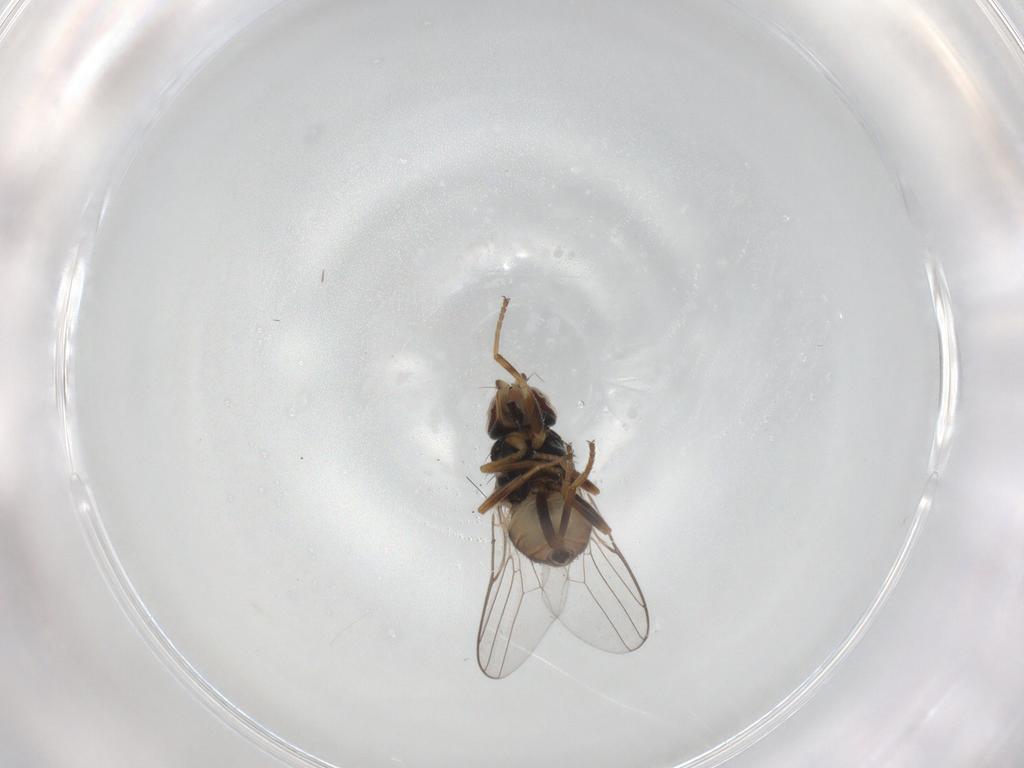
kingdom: Animalia
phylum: Arthropoda
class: Insecta
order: Diptera
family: Chloropidae
